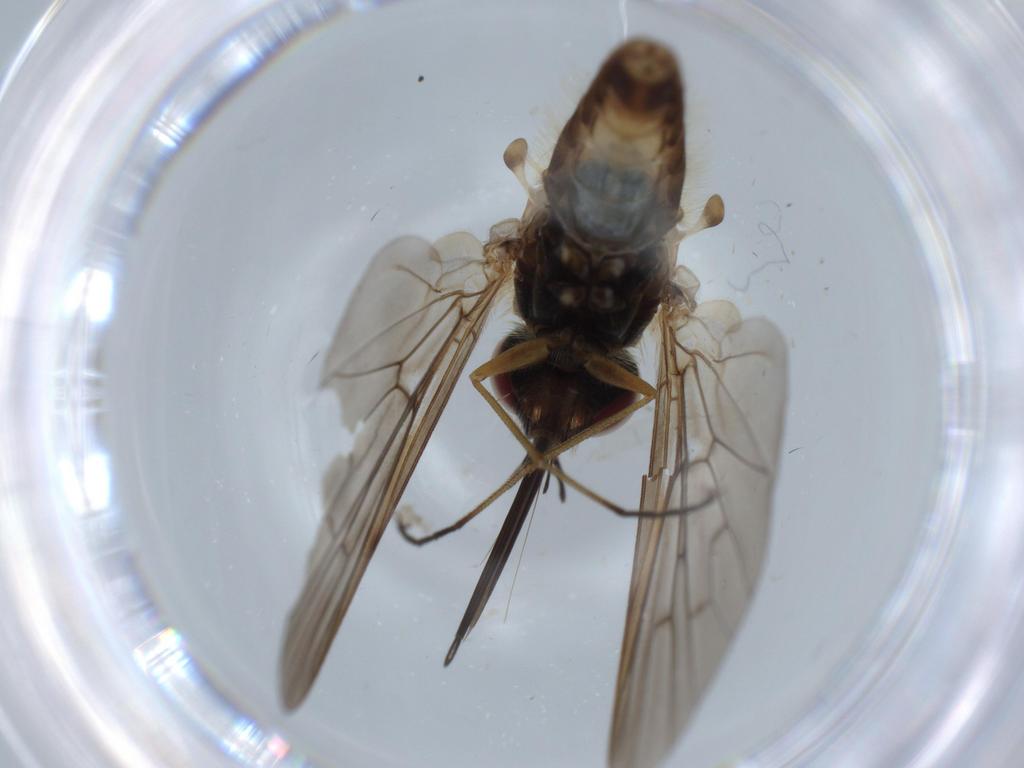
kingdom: Animalia
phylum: Arthropoda
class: Insecta
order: Diptera
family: Bombyliidae
